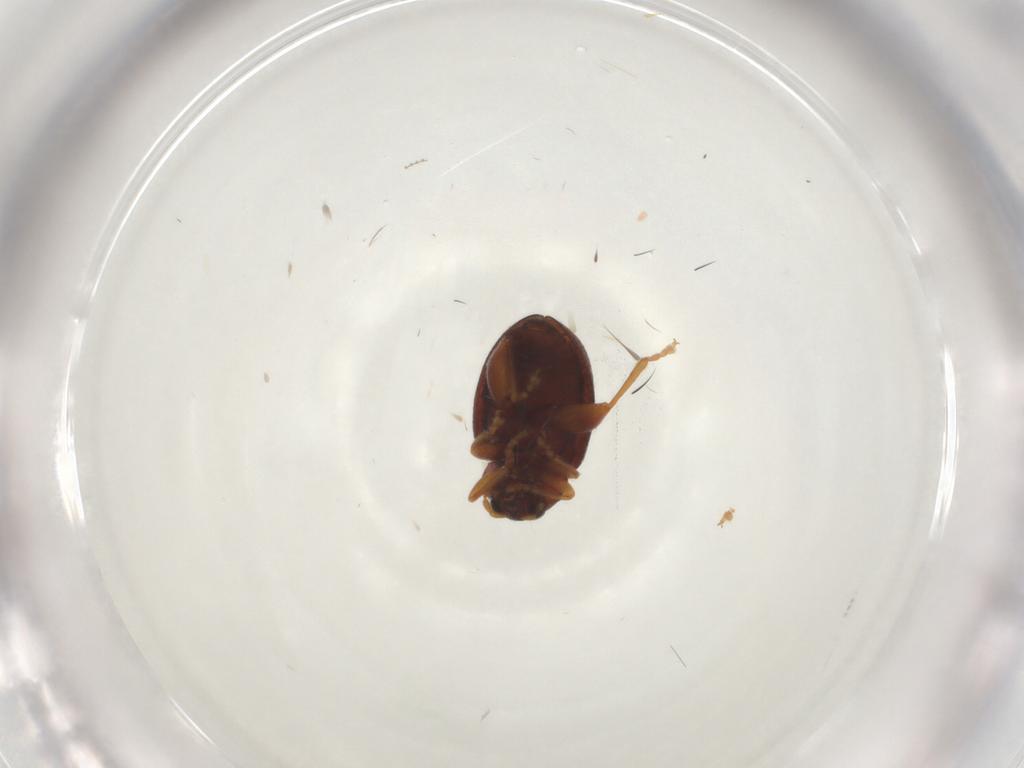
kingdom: Animalia
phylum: Arthropoda
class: Insecta
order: Coleoptera
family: Chrysomelidae
